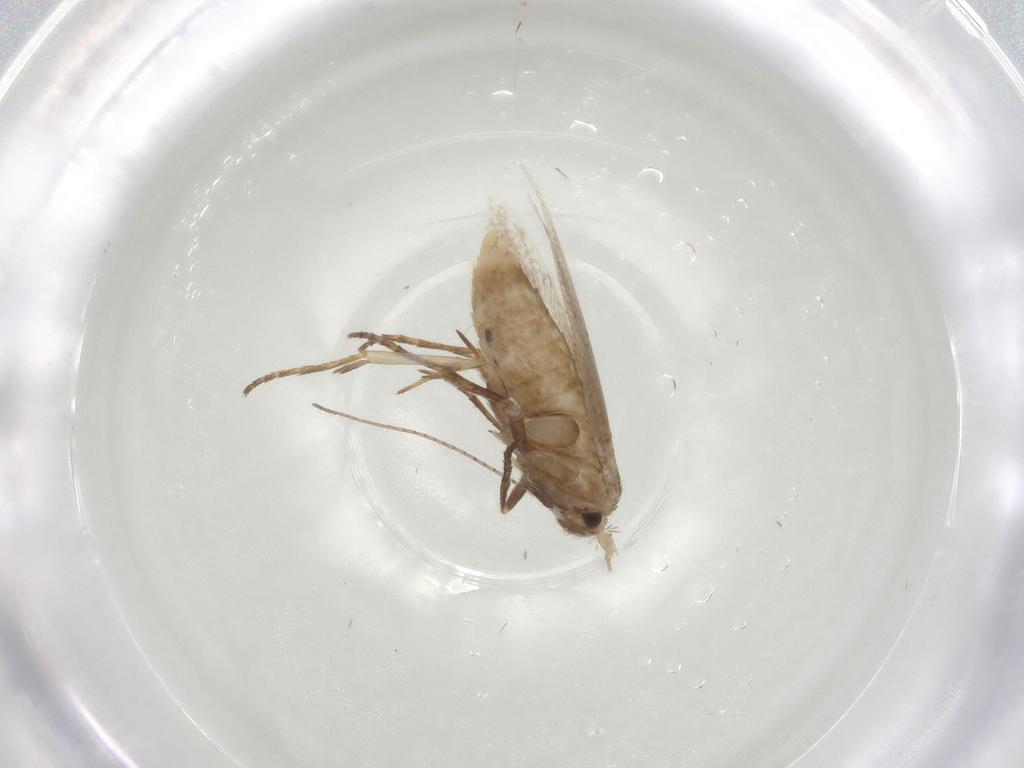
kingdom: Animalia
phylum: Arthropoda
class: Insecta
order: Lepidoptera
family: Bucculatricidae
